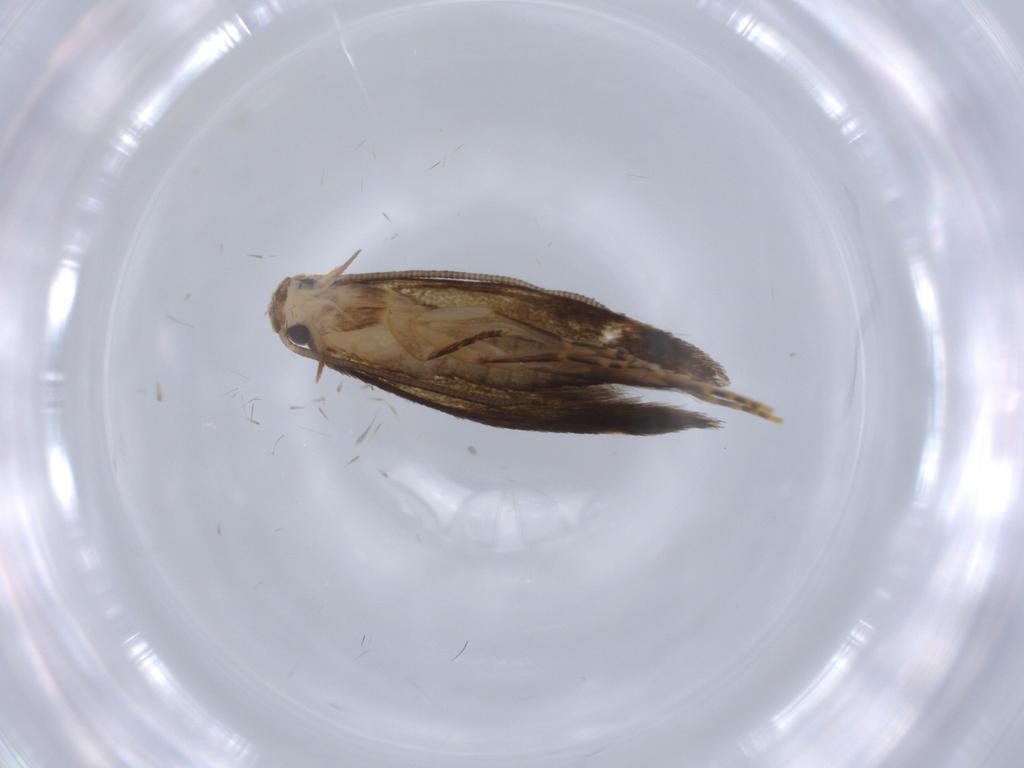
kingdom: Animalia
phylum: Arthropoda
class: Insecta
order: Lepidoptera
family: Tineidae
